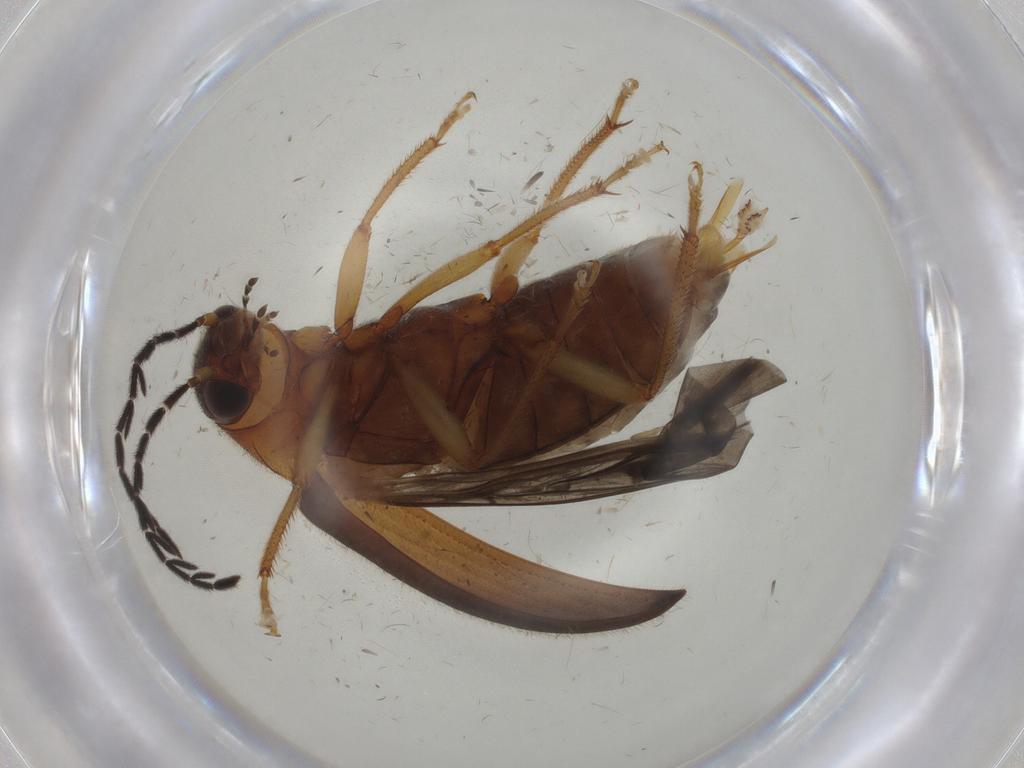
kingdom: Animalia
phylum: Arthropoda
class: Insecta
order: Coleoptera
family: Ptilodactylidae
